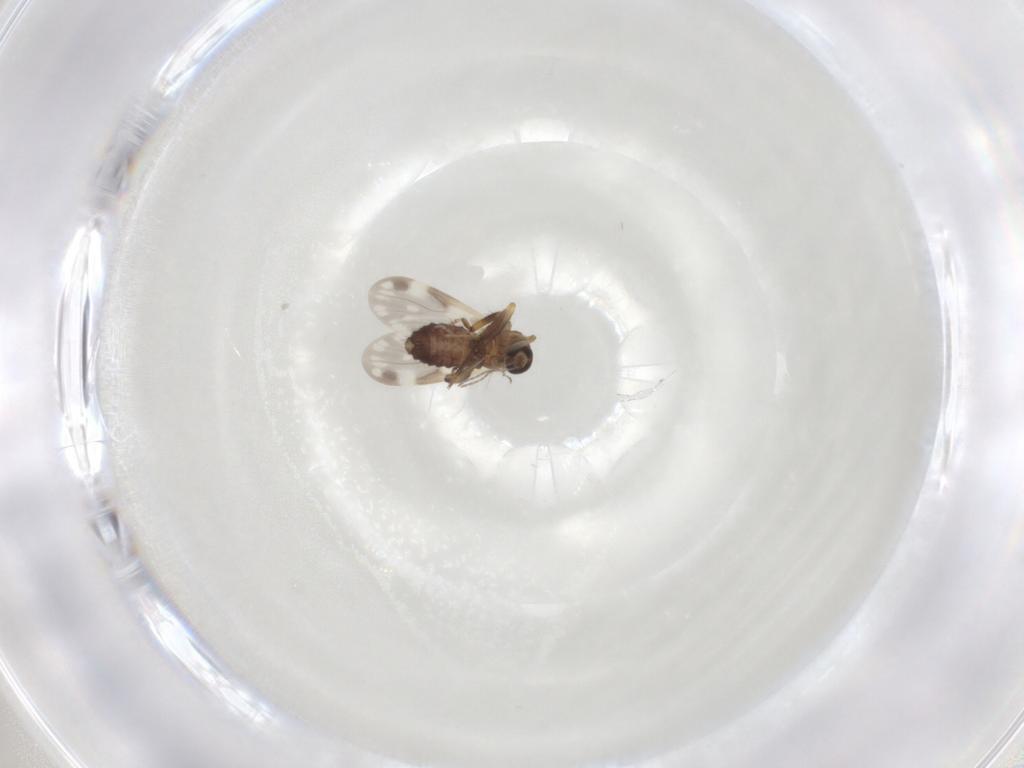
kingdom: Animalia
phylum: Arthropoda
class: Insecta
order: Diptera
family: Ceratopogonidae
